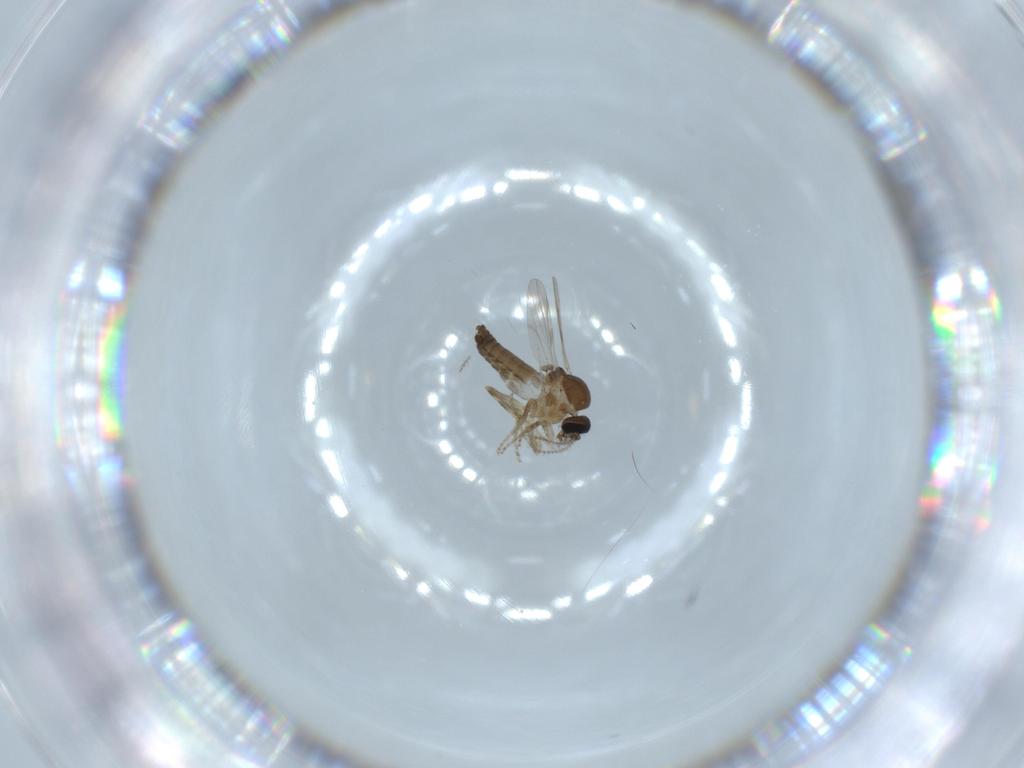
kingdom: Animalia
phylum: Arthropoda
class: Insecta
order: Diptera
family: Ceratopogonidae
